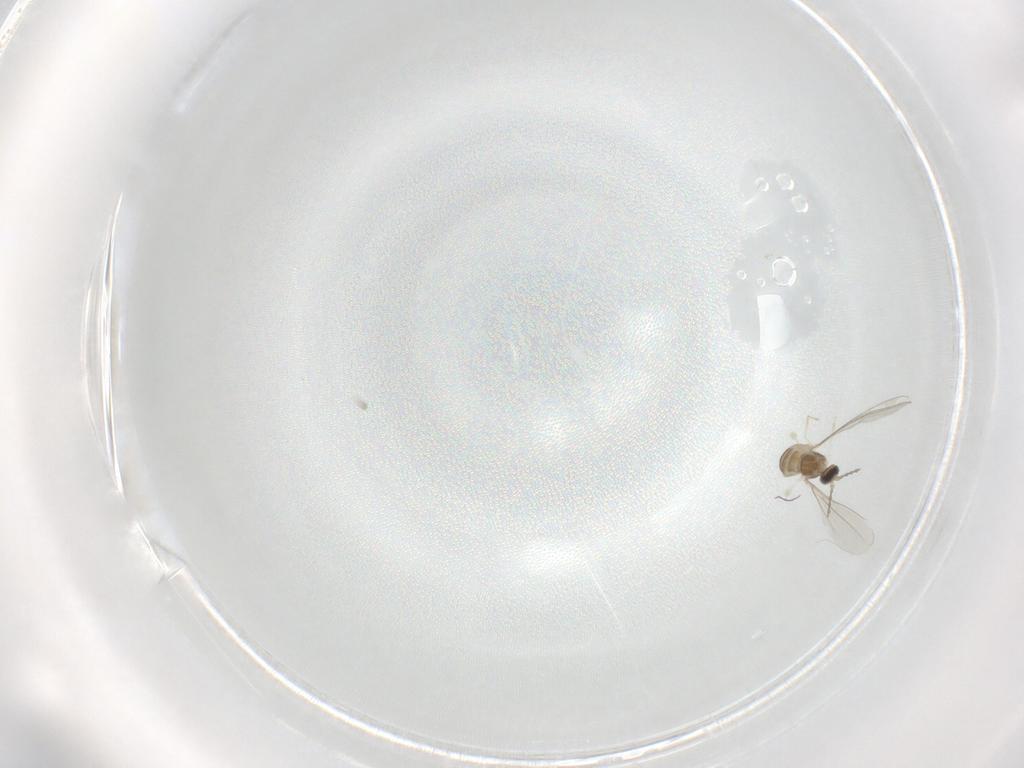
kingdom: Animalia
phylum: Arthropoda
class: Insecta
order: Diptera
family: Cecidomyiidae
